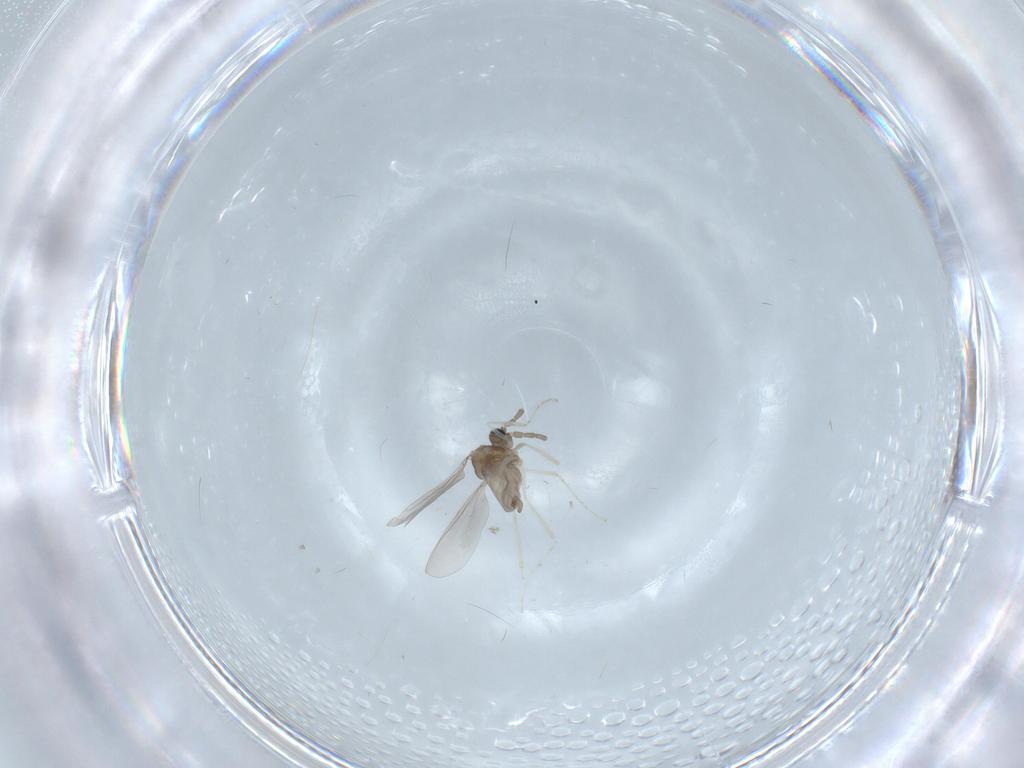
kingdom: Animalia
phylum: Arthropoda
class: Insecta
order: Diptera
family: Cecidomyiidae
